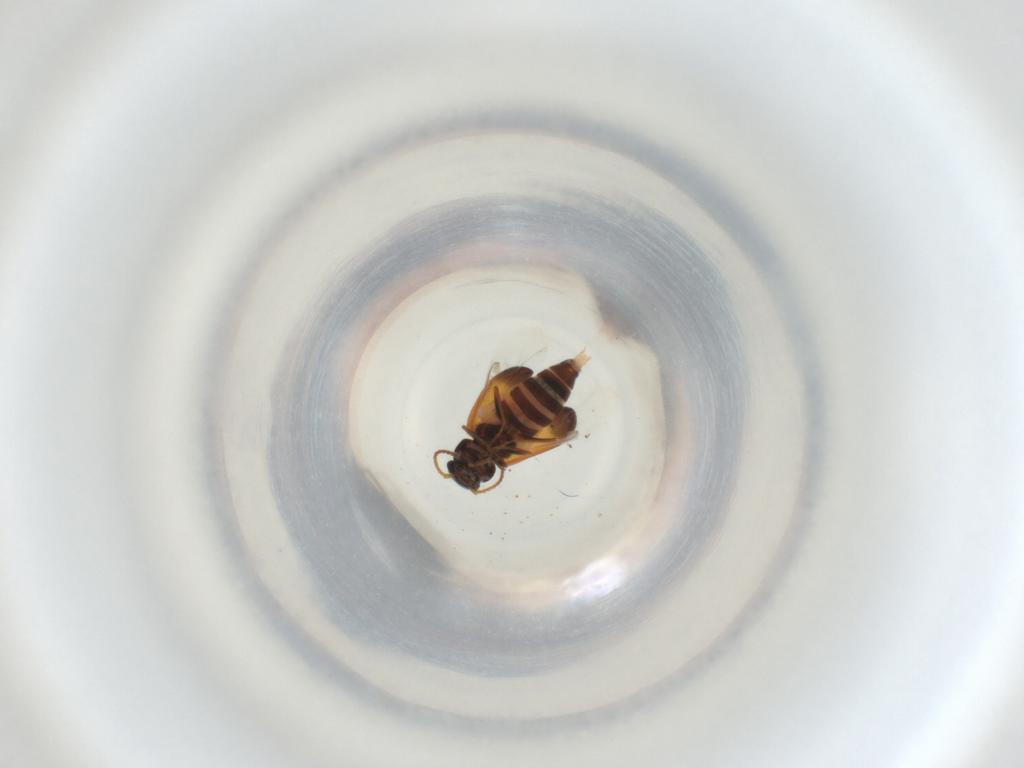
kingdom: Animalia
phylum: Arthropoda
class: Insecta
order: Coleoptera
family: Melyridae
